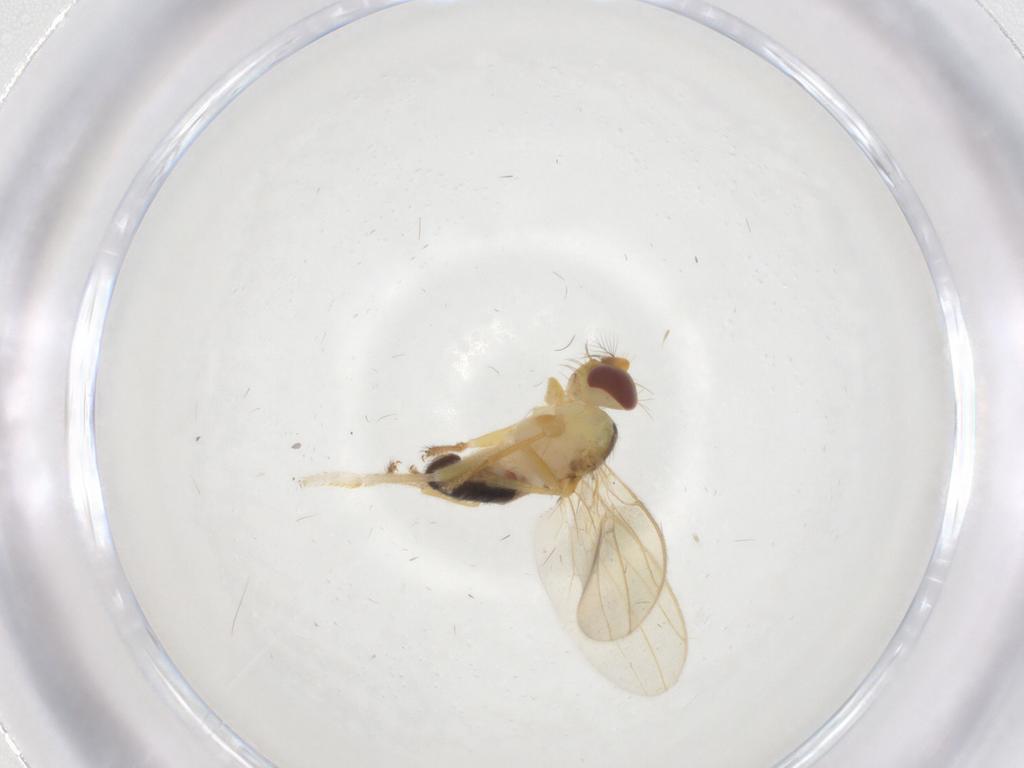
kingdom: Animalia
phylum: Arthropoda
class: Insecta
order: Diptera
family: Periscelididae
